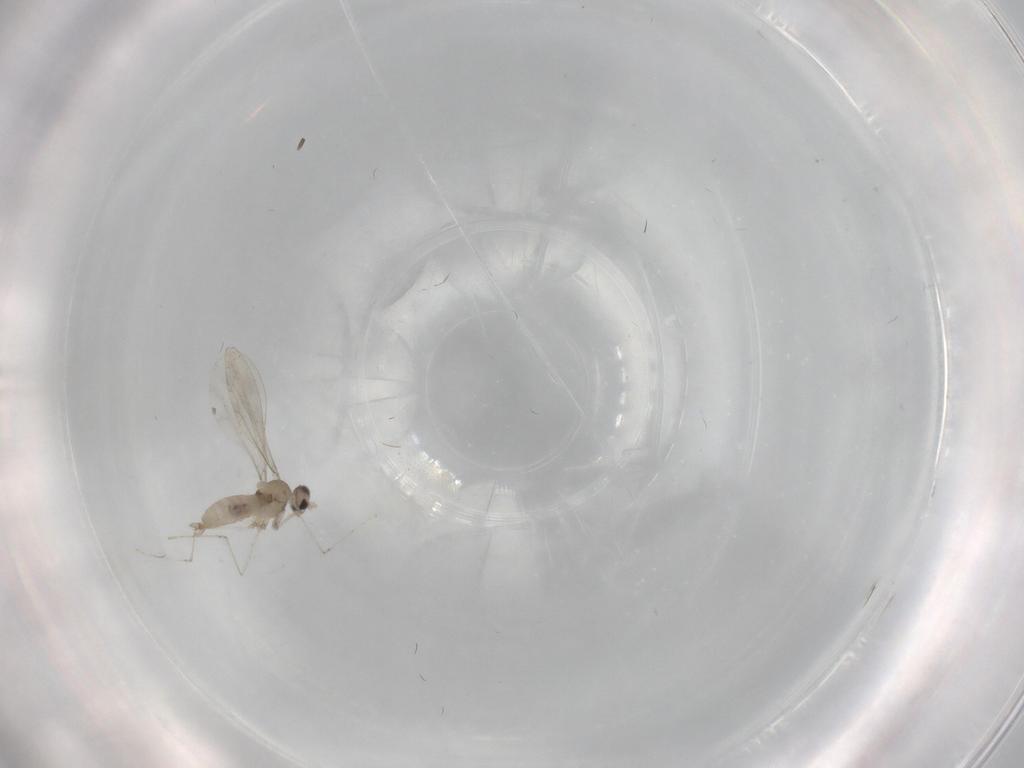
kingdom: Animalia
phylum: Arthropoda
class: Insecta
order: Diptera
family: Cecidomyiidae
